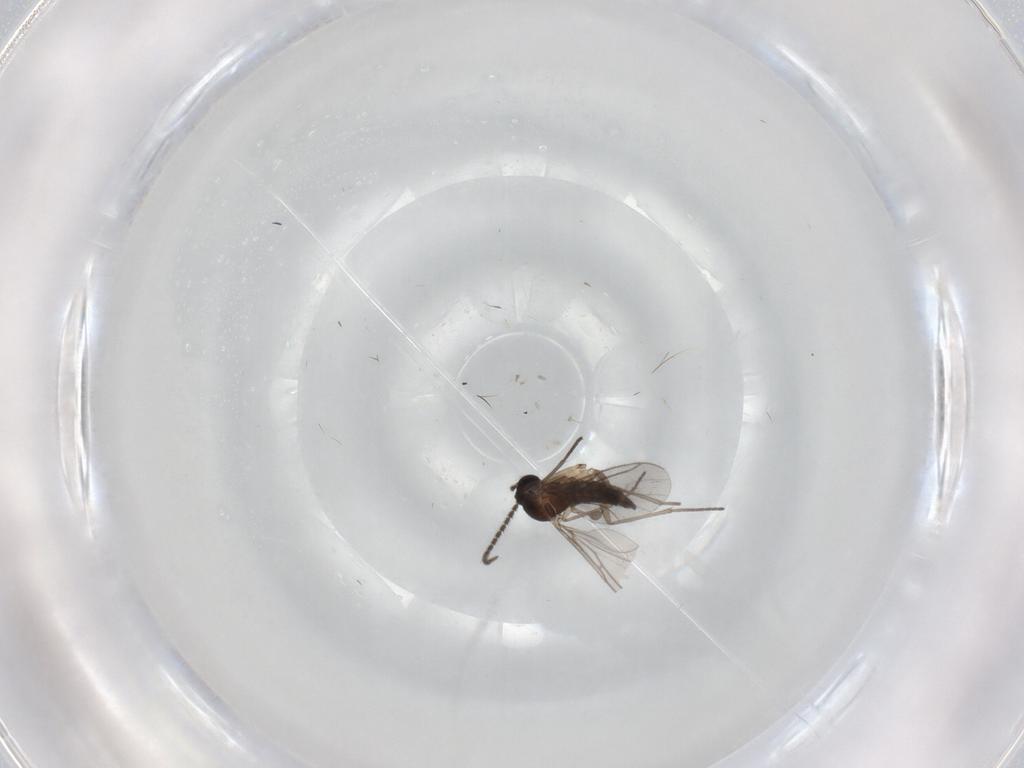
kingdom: Animalia
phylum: Arthropoda
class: Insecta
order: Diptera
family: Sciaridae
